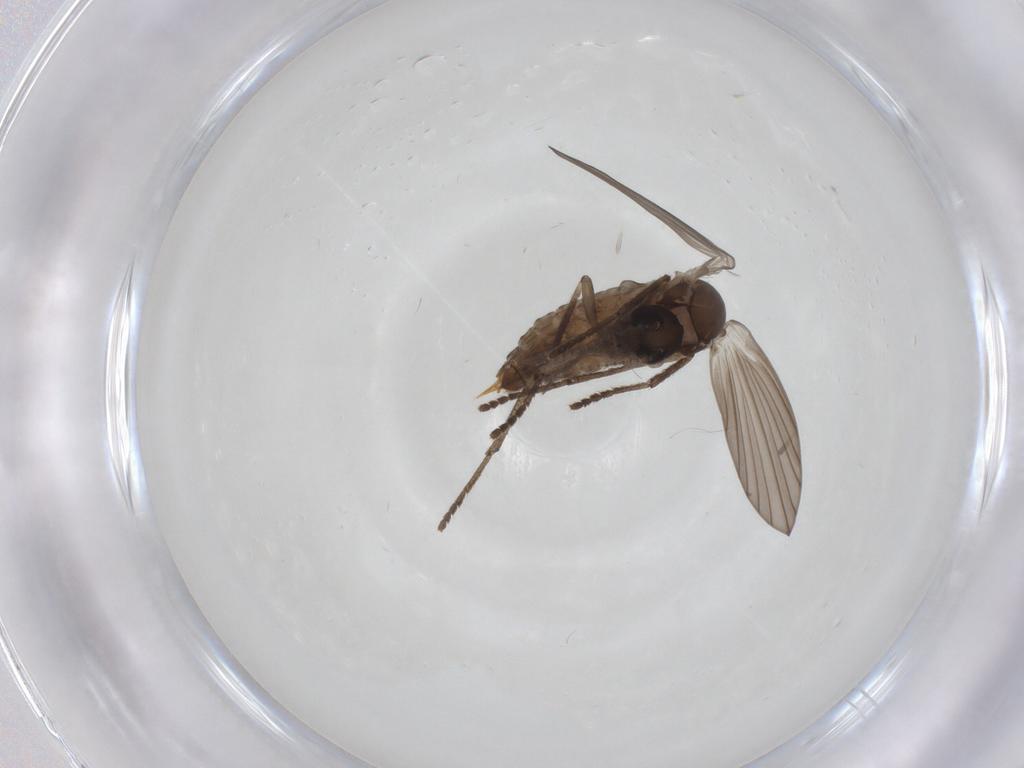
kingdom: Animalia
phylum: Arthropoda
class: Insecta
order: Diptera
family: Psychodidae
